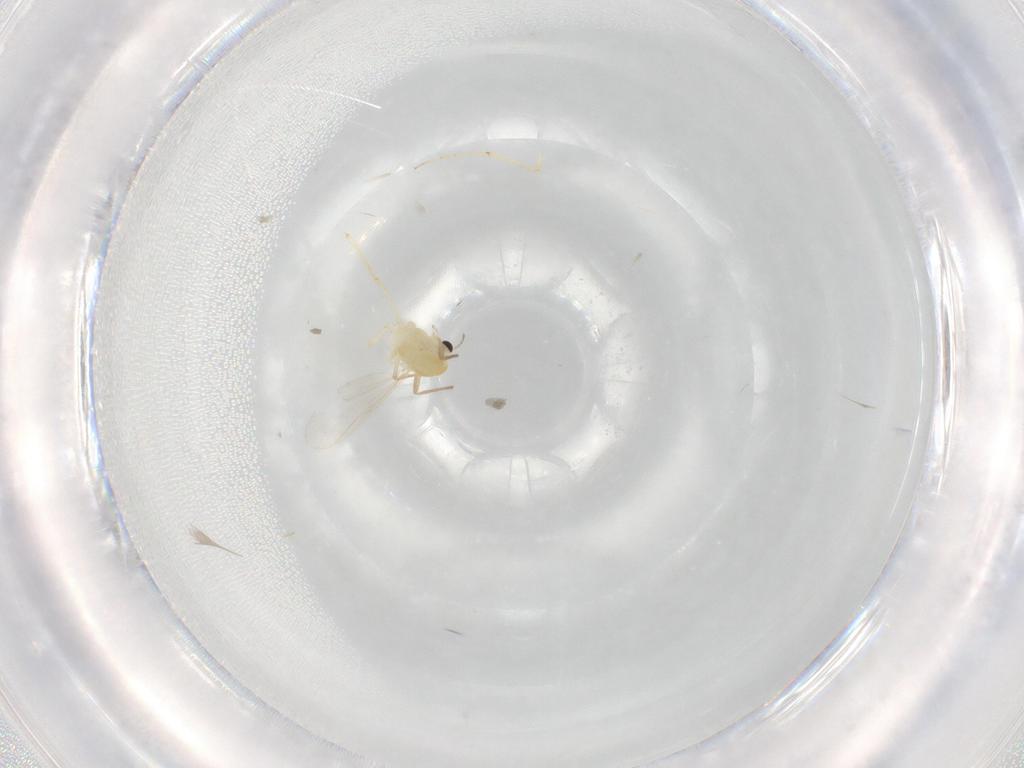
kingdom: Animalia
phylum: Arthropoda
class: Insecta
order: Diptera
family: Chironomidae
